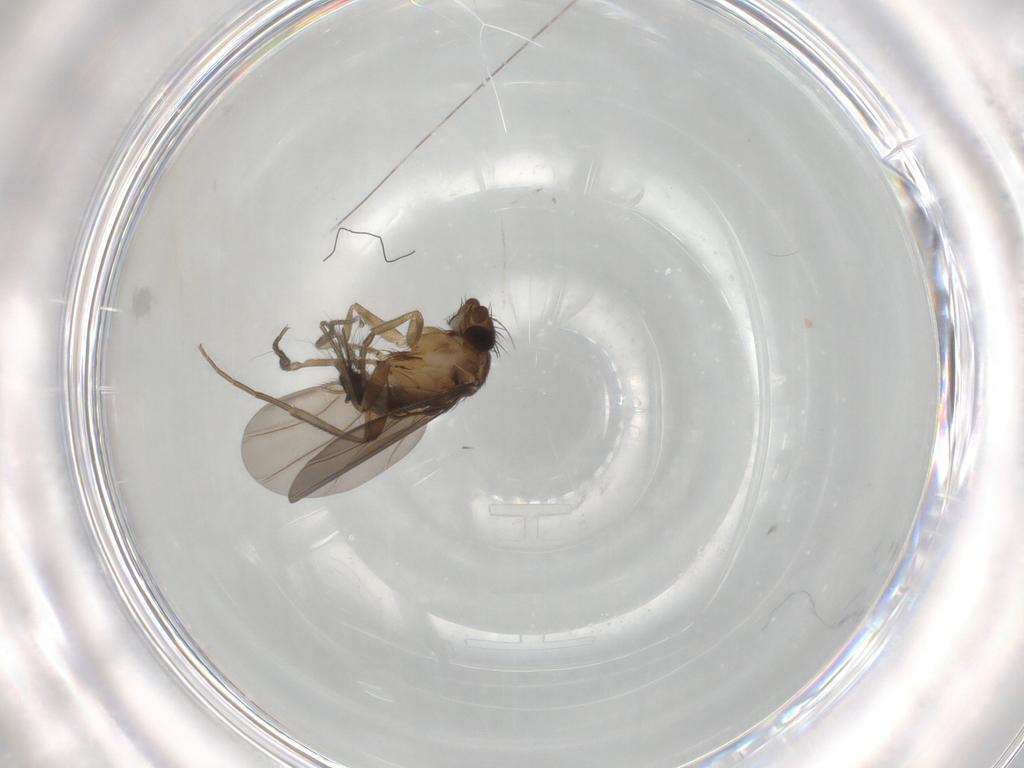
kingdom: Animalia
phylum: Arthropoda
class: Insecta
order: Diptera
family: Phoridae
